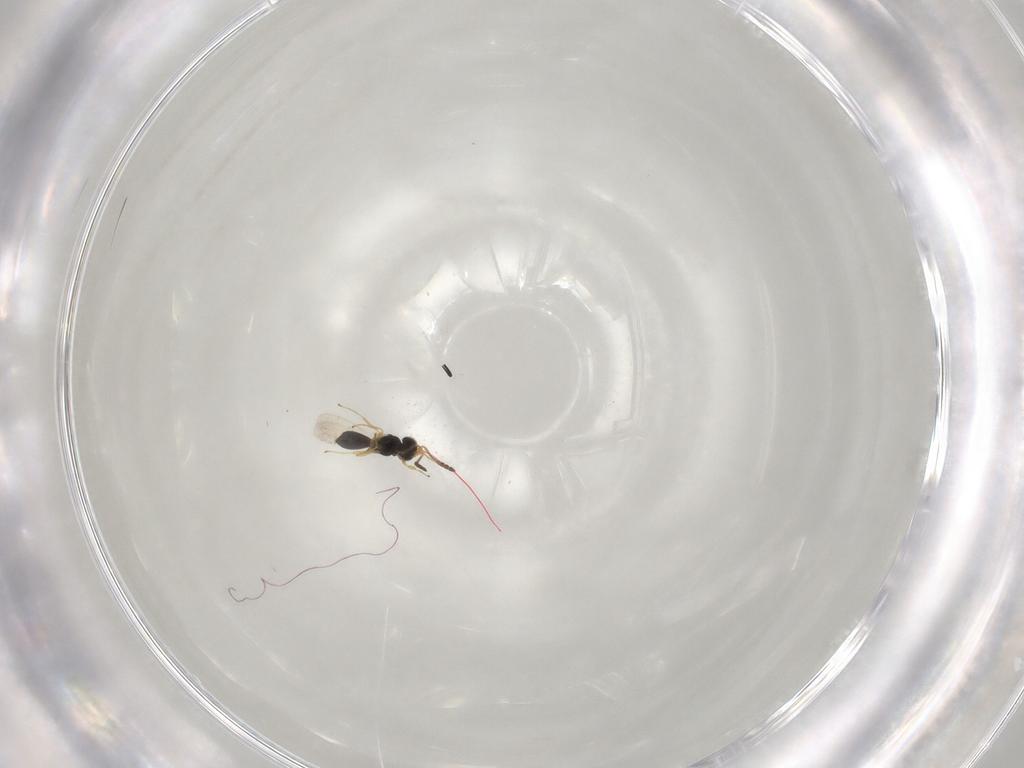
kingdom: Animalia
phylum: Arthropoda
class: Insecta
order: Hymenoptera
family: Scelionidae
